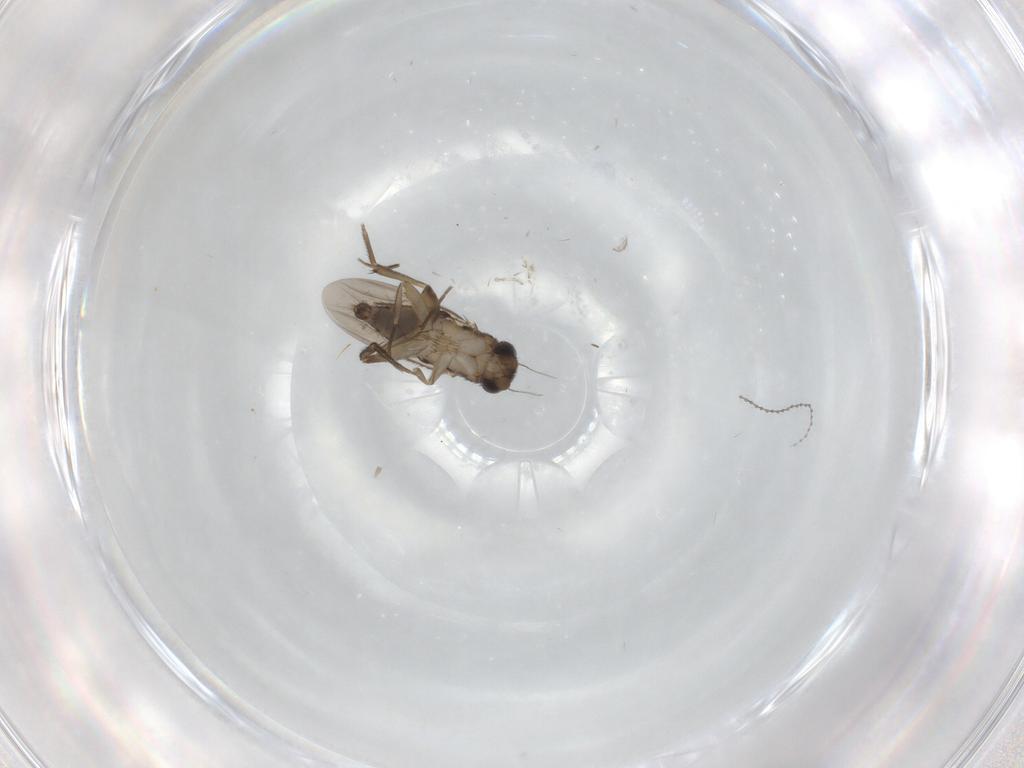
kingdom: Animalia
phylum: Arthropoda
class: Insecta
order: Diptera
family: Phoridae
